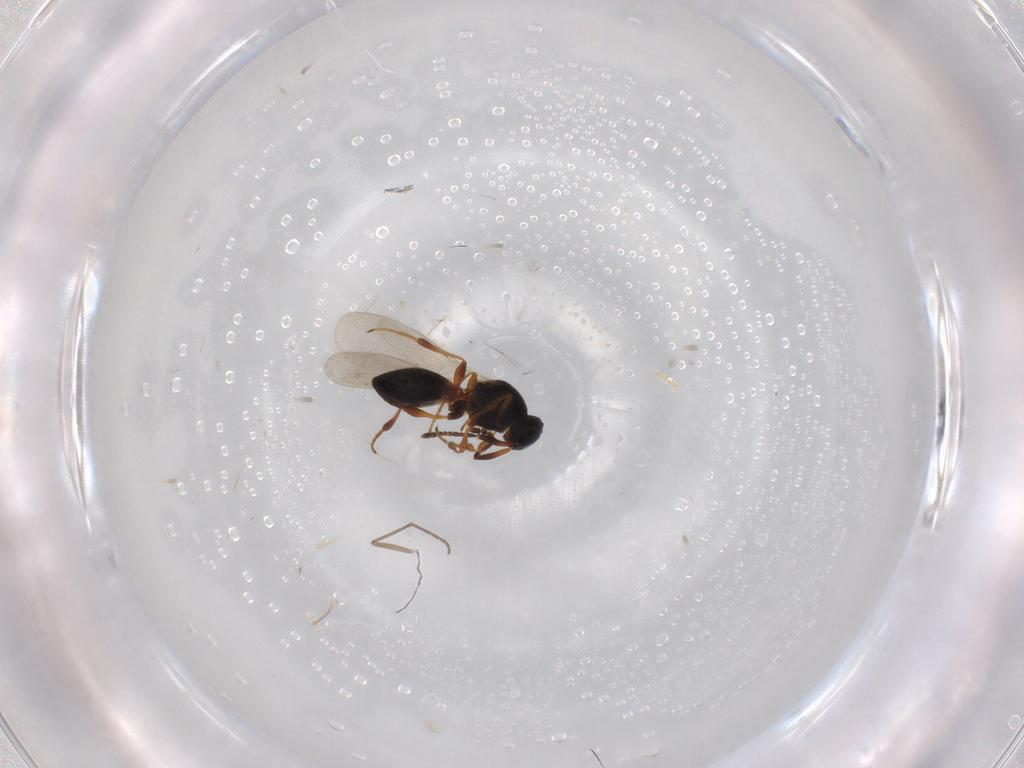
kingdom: Animalia
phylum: Arthropoda
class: Insecta
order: Hymenoptera
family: Platygastridae
